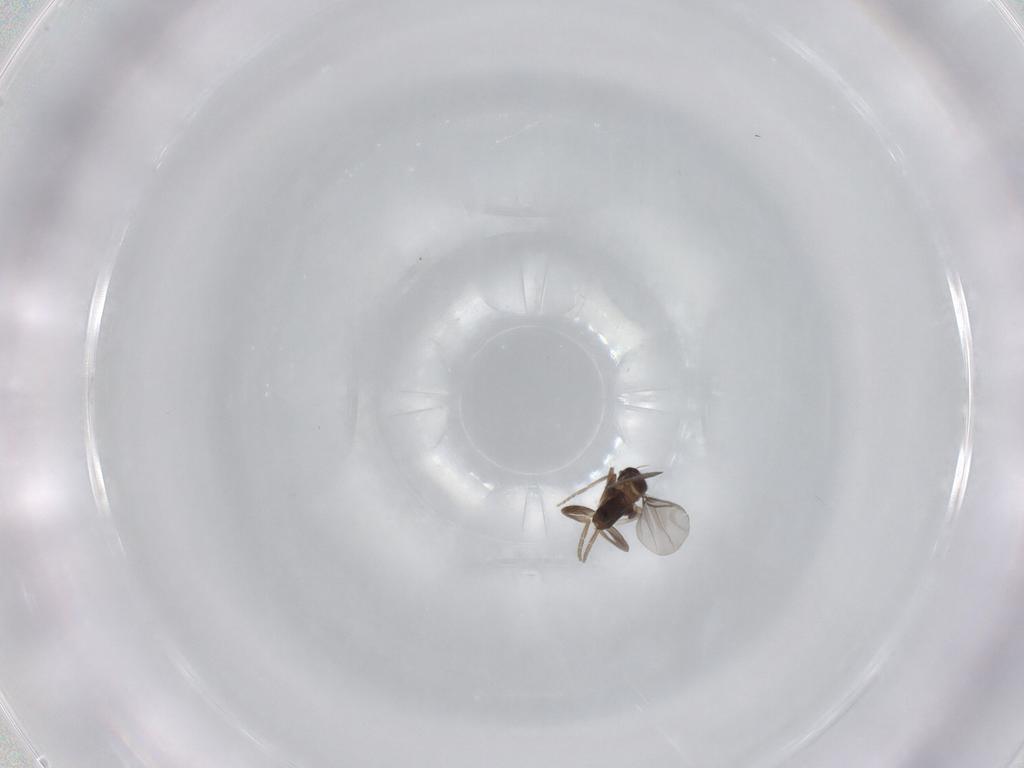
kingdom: Animalia
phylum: Arthropoda
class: Insecta
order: Diptera
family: Phoridae
